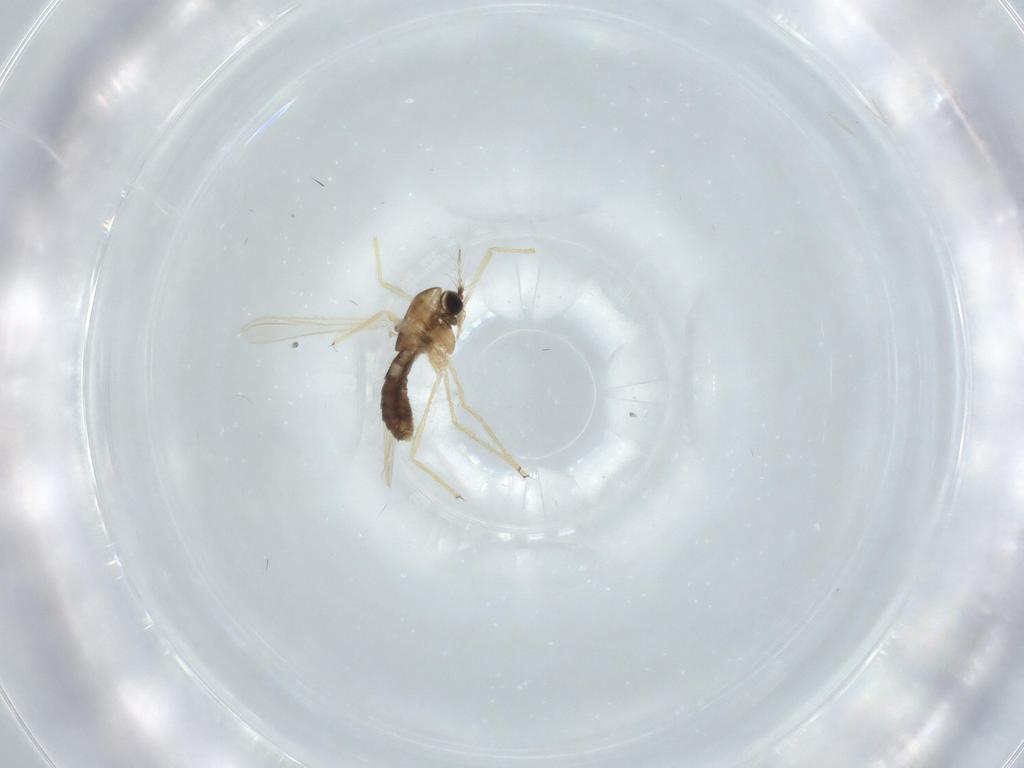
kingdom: Animalia
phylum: Arthropoda
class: Insecta
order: Diptera
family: Chironomidae
